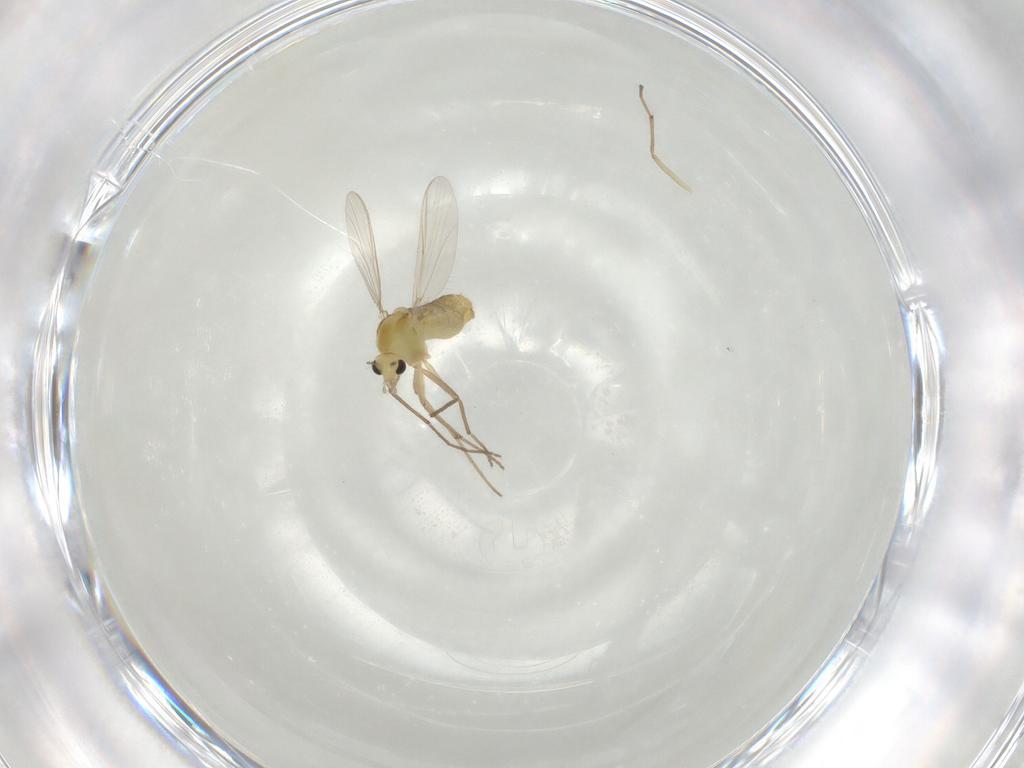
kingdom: Animalia
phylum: Arthropoda
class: Insecta
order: Diptera
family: Chironomidae
